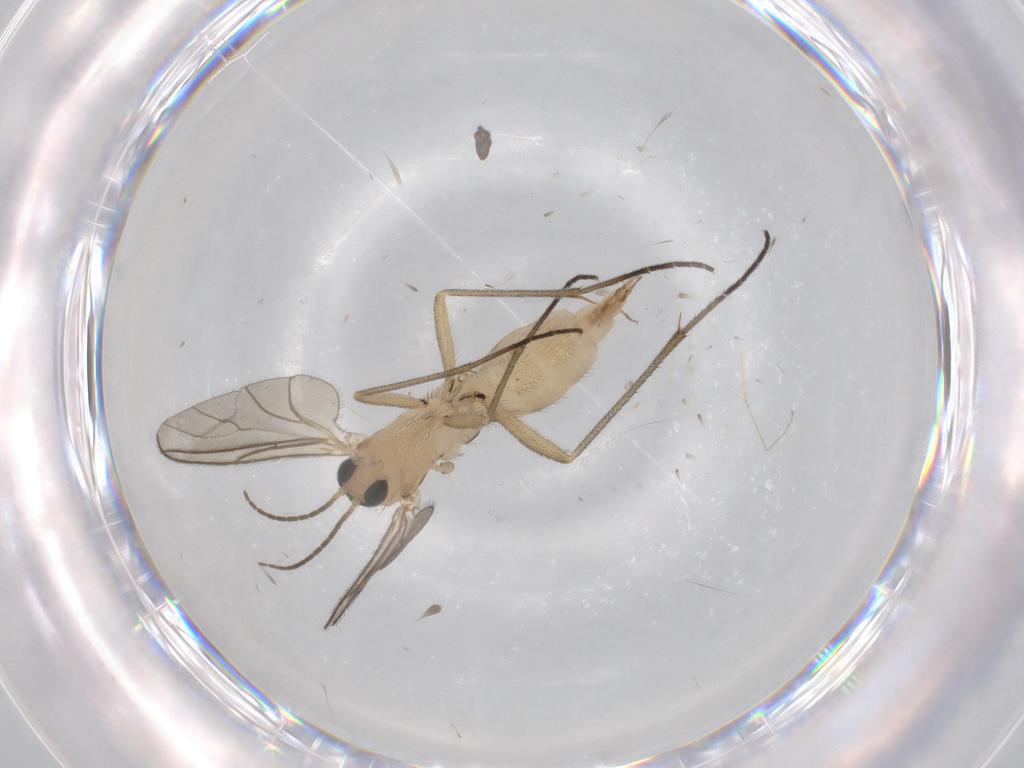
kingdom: Animalia
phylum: Arthropoda
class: Insecta
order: Diptera
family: Sciaridae
